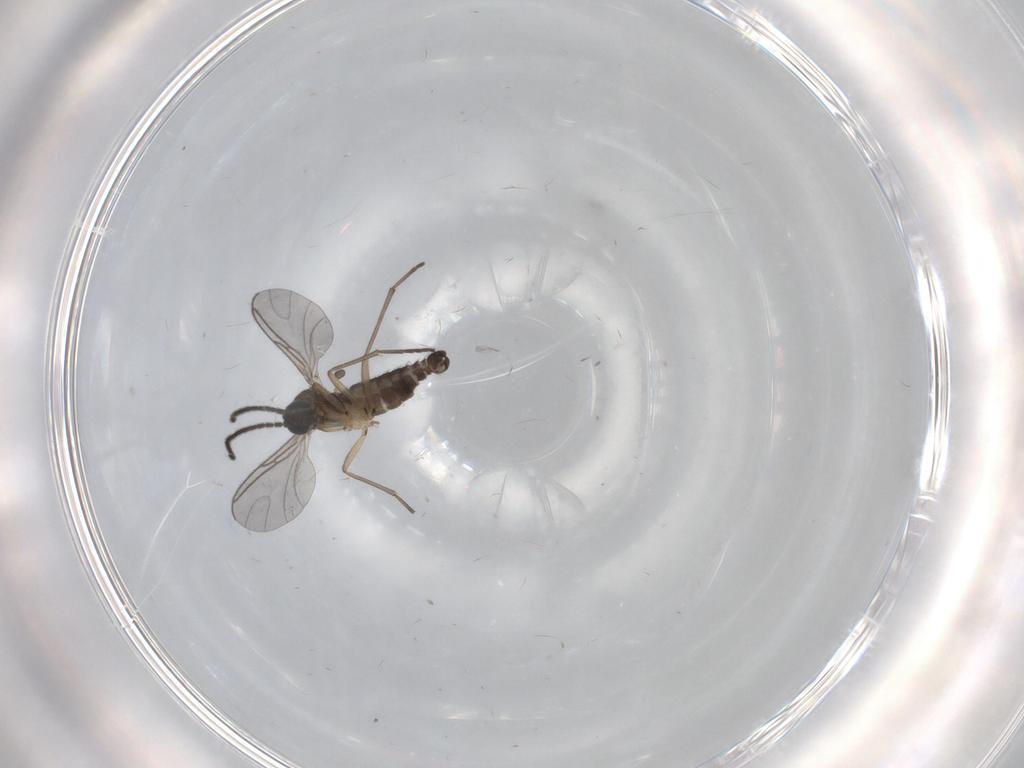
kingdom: Animalia
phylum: Arthropoda
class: Insecta
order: Diptera
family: Sciaridae
